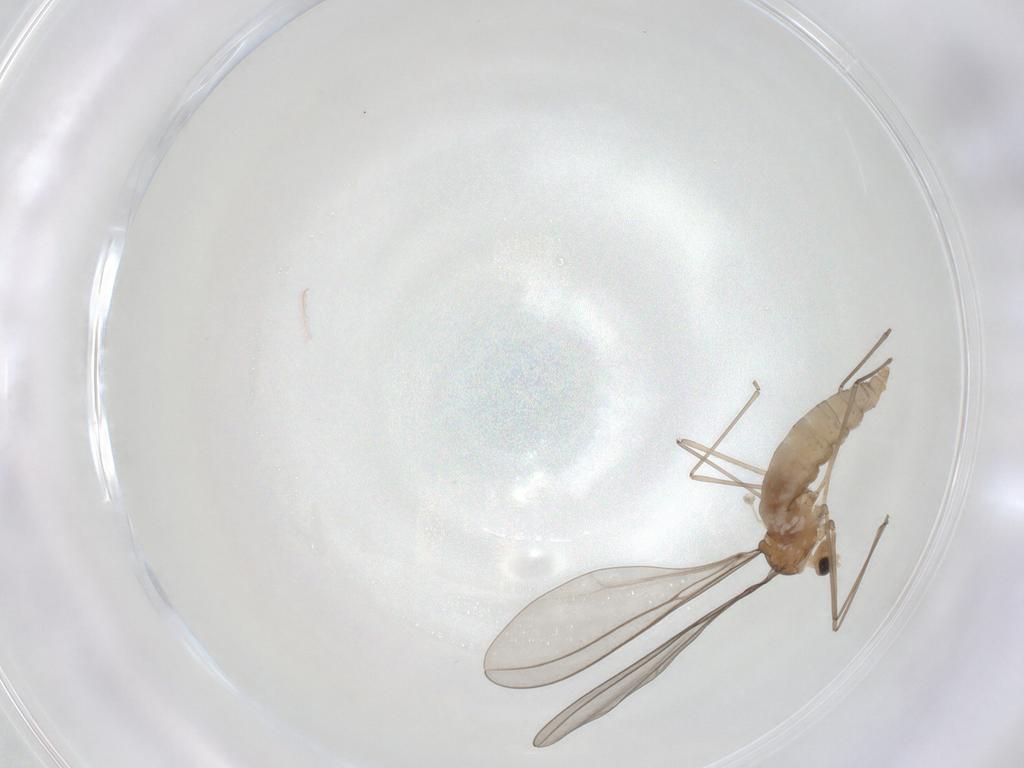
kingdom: Animalia
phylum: Arthropoda
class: Insecta
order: Diptera
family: Cecidomyiidae
